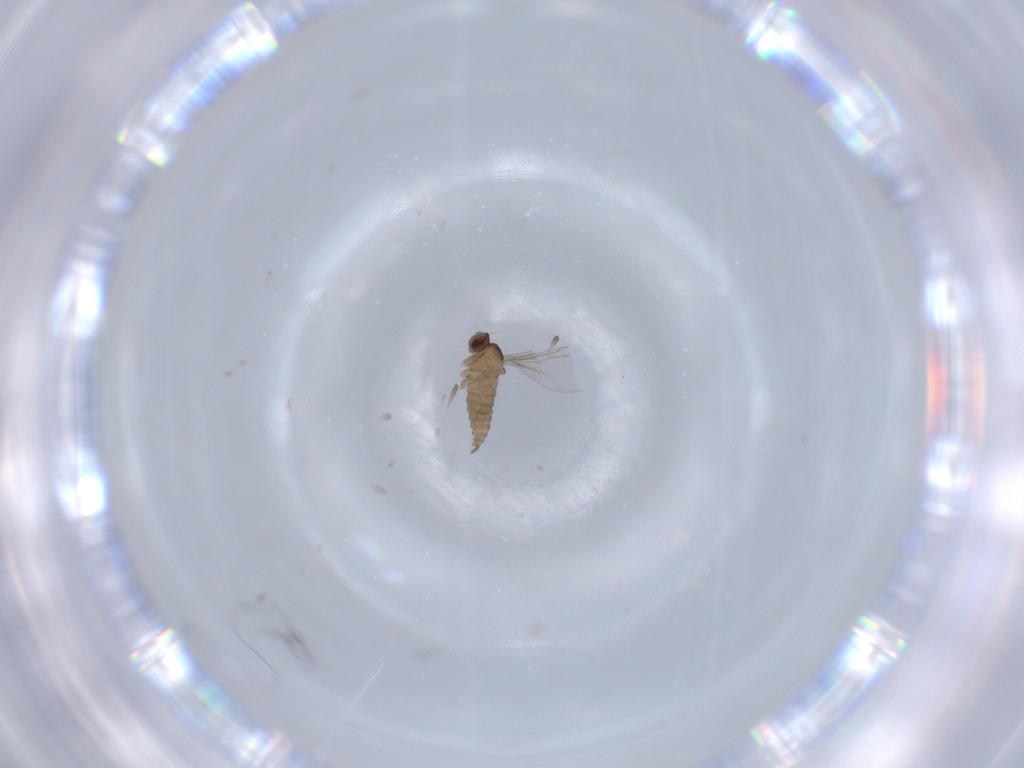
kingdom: Animalia
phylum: Arthropoda
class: Insecta
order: Diptera
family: Cecidomyiidae
